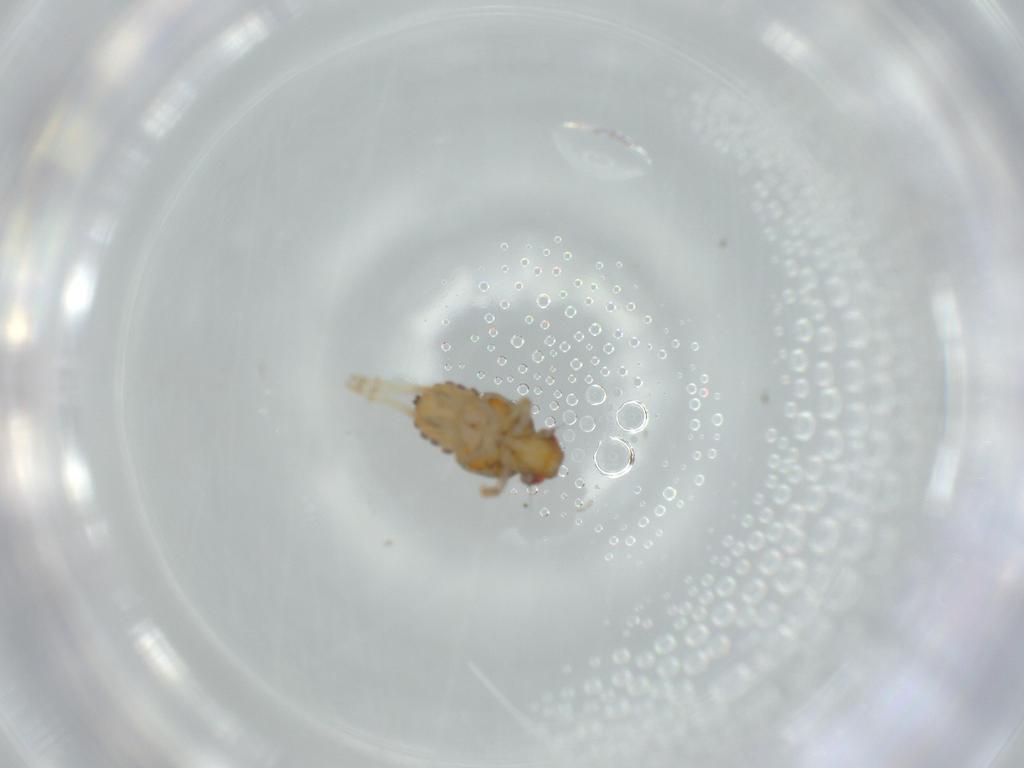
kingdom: Animalia
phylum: Arthropoda
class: Insecta
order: Hemiptera
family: Issidae
